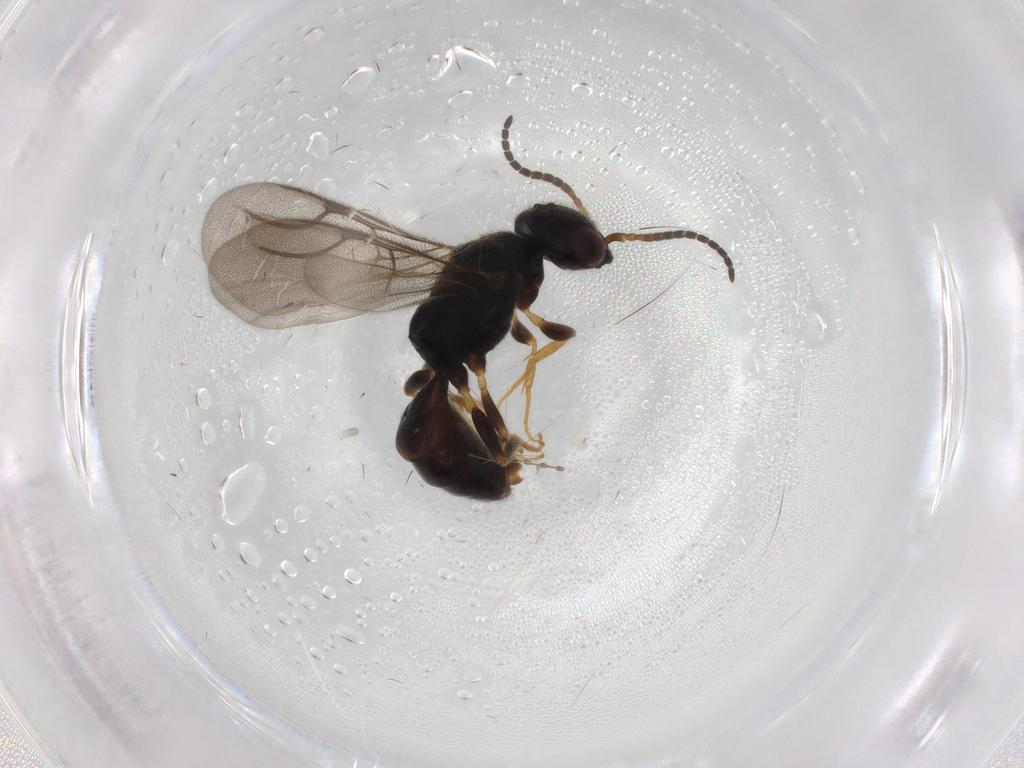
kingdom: Animalia
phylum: Arthropoda
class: Insecta
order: Hymenoptera
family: Bethylidae
